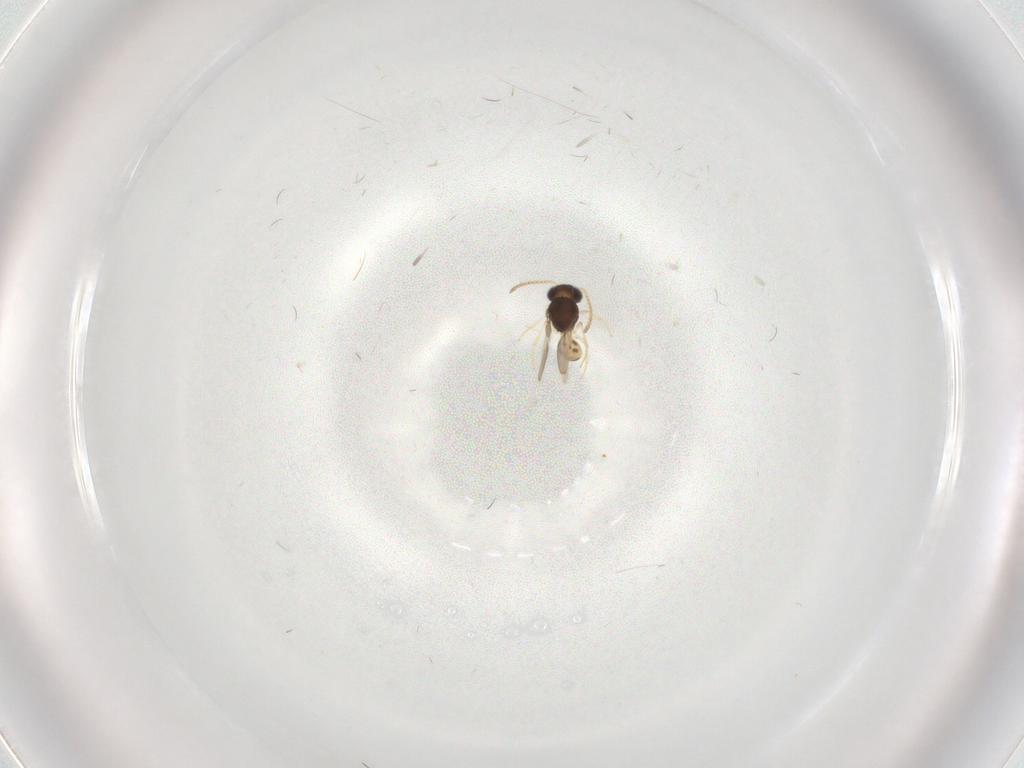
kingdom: Animalia
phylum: Arthropoda
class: Insecta
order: Hymenoptera
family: Scelionidae
